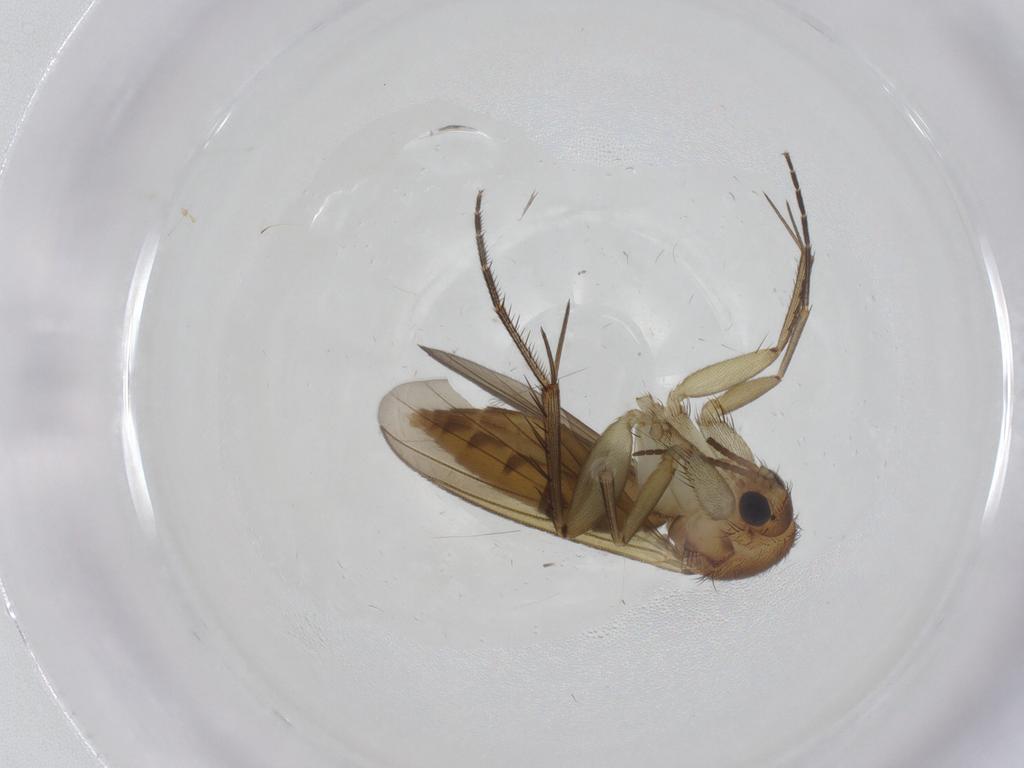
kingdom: Animalia
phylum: Arthropoda
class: Insecta
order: Diptera
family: Mycetophilidae
